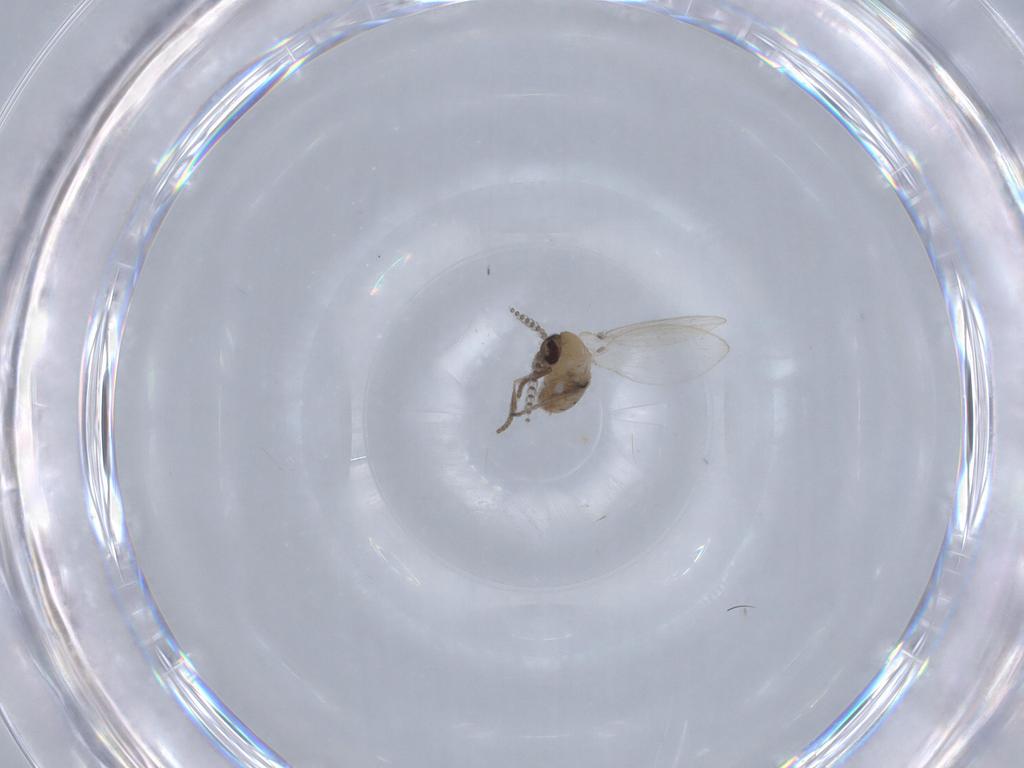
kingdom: Animalia
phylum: Arthropoda
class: Insecta
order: Diptera
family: Psychodidae
